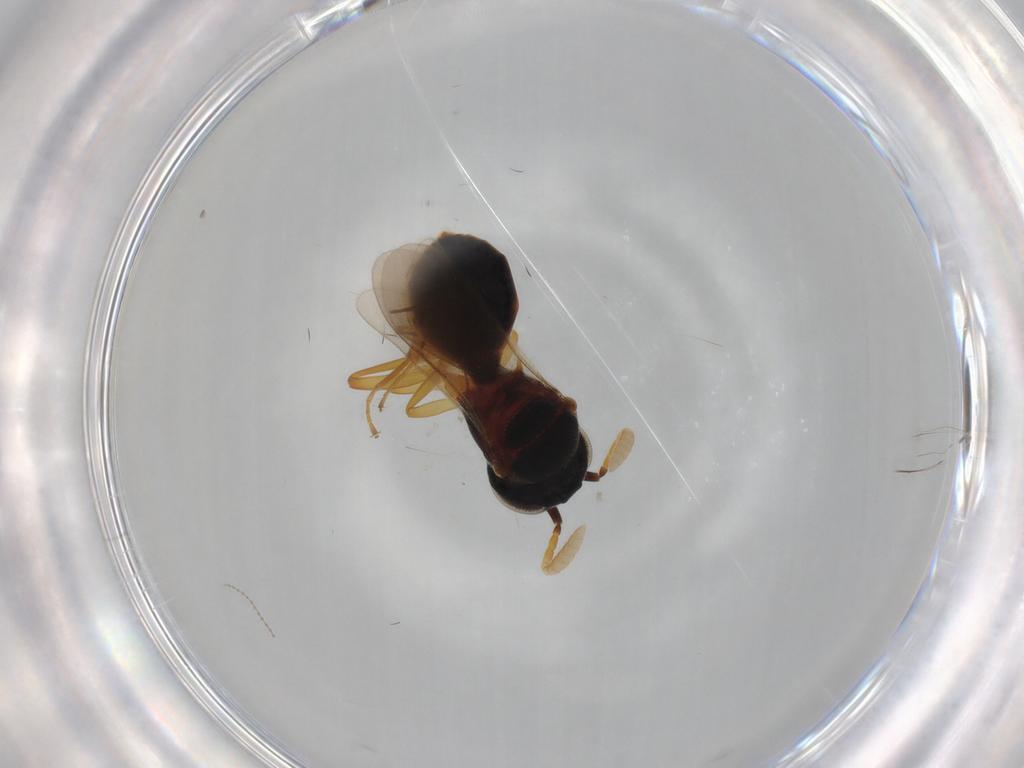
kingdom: Animalia
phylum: Arthropoda
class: Insecta
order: Hymenoptera
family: Scelionidae
